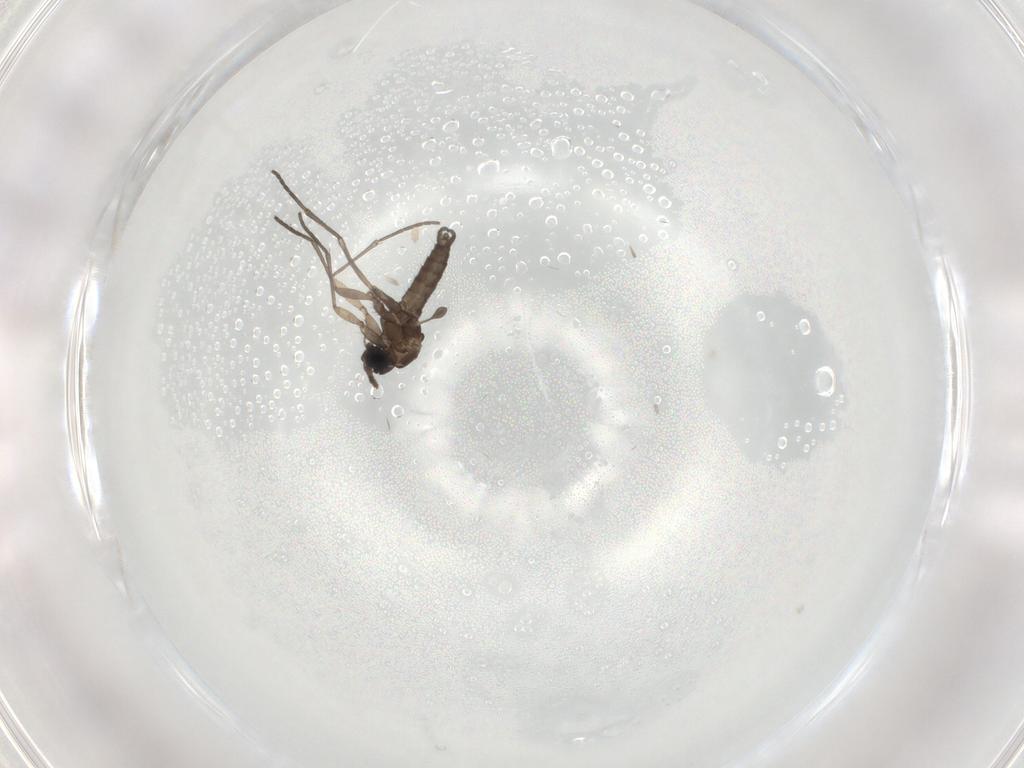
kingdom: Animalia
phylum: Arthropoda
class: Insecta
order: Diptera
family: Sciaridae
